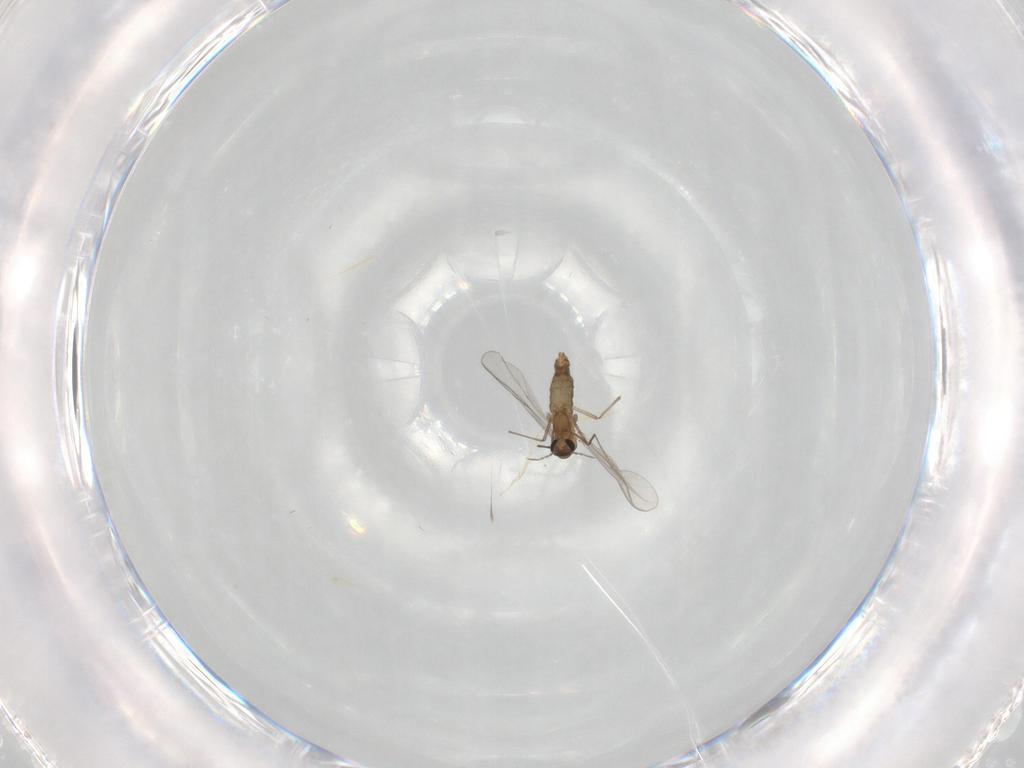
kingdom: Animalia
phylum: Arthropoda
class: Insecta
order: Diptera
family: Chironomidae
